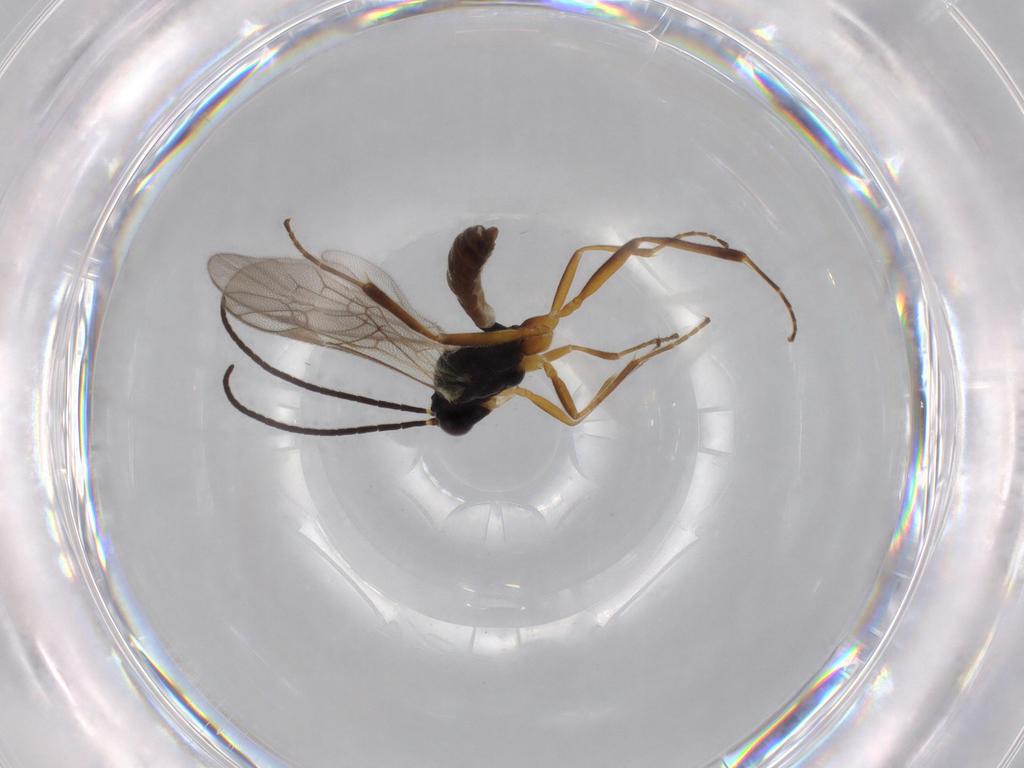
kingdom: Animalia
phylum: Arthropoda
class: Insecta
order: Hymenoptera
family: Ichneumonidae
